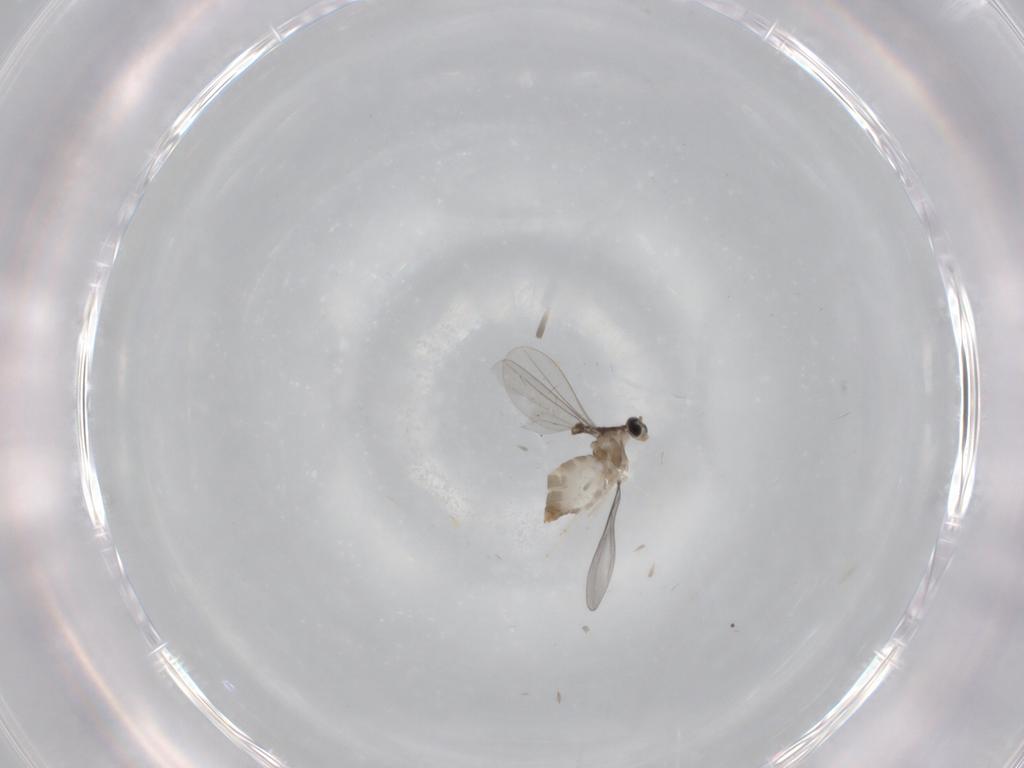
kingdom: Animalia
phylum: Arthropoda
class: Insecta
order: Diptera
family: Cecidomyiidae
